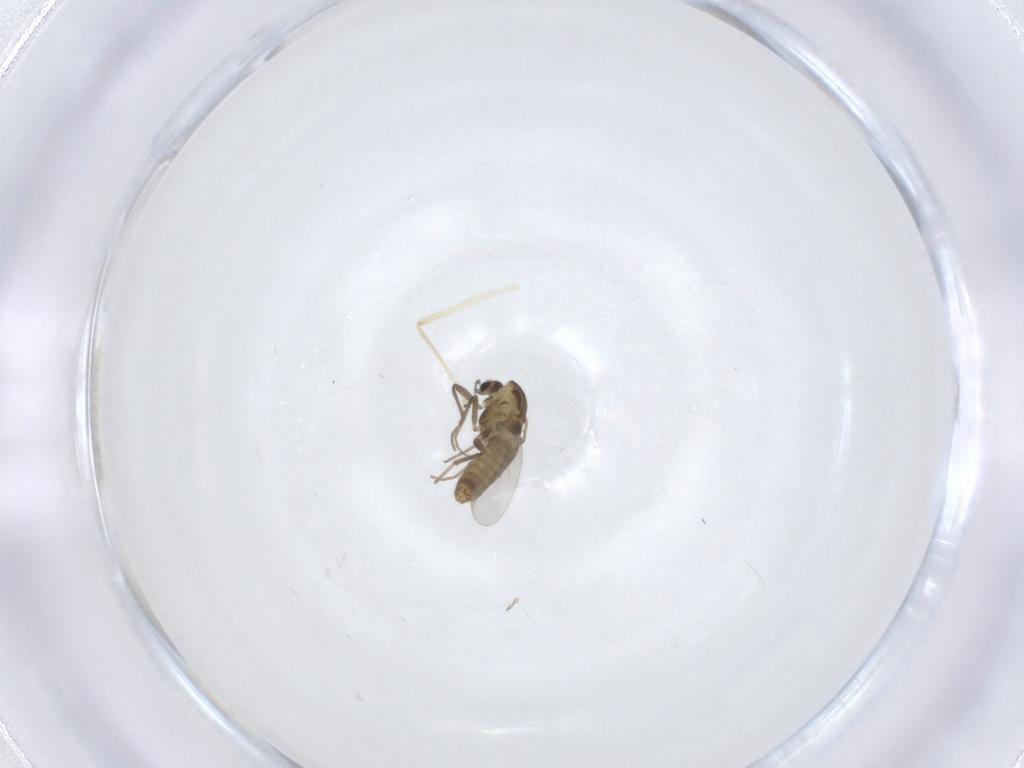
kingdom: Animalia
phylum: Arthropoda
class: Insecta
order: Diptera
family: Chironomidae
